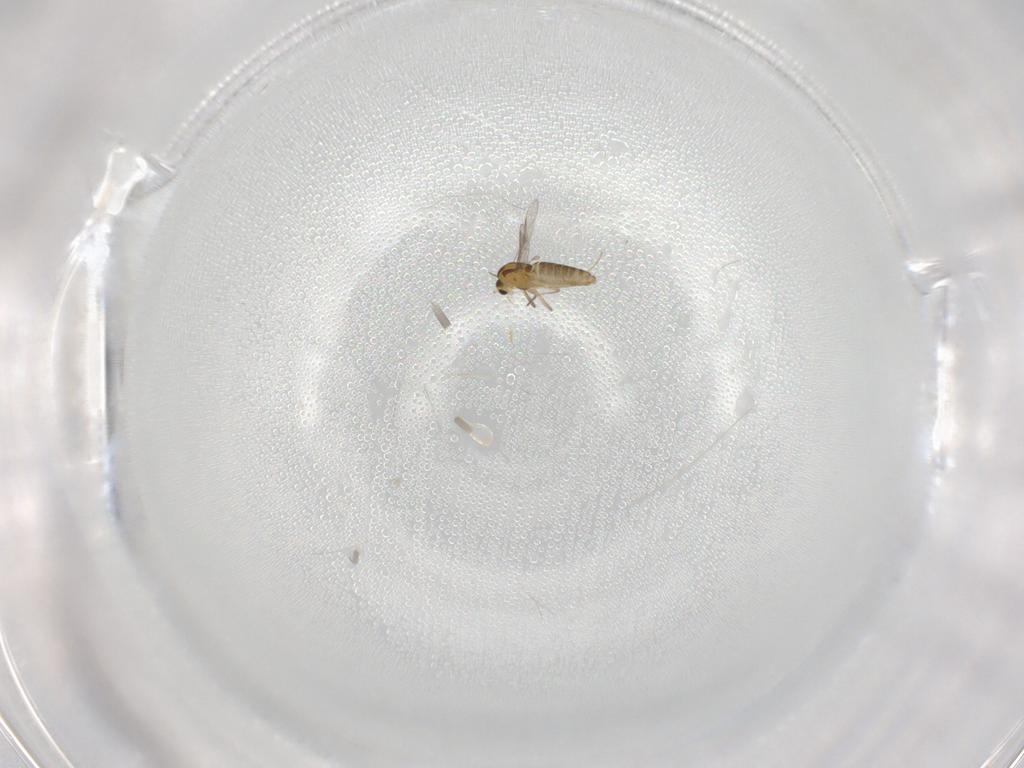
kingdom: Animalia
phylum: Arthropoda
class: Insecta
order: Diptera
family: Chironomidae
